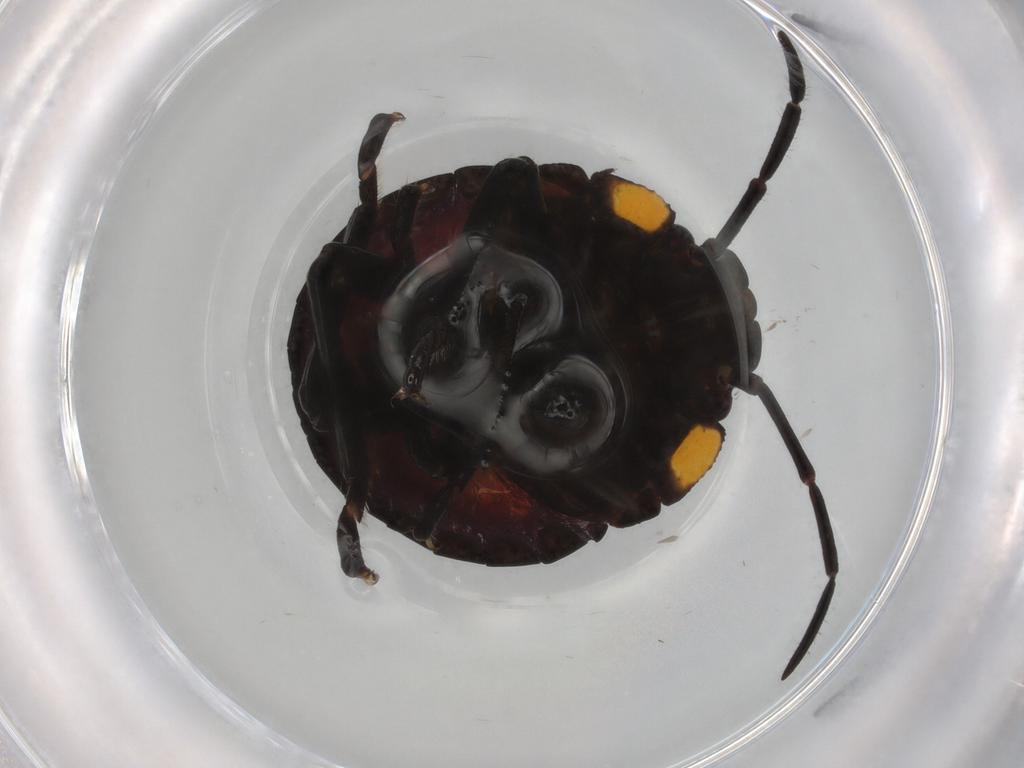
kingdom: Animalia
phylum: Arthropoda
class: Insecta
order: Hemiptera
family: Pentatomidae
